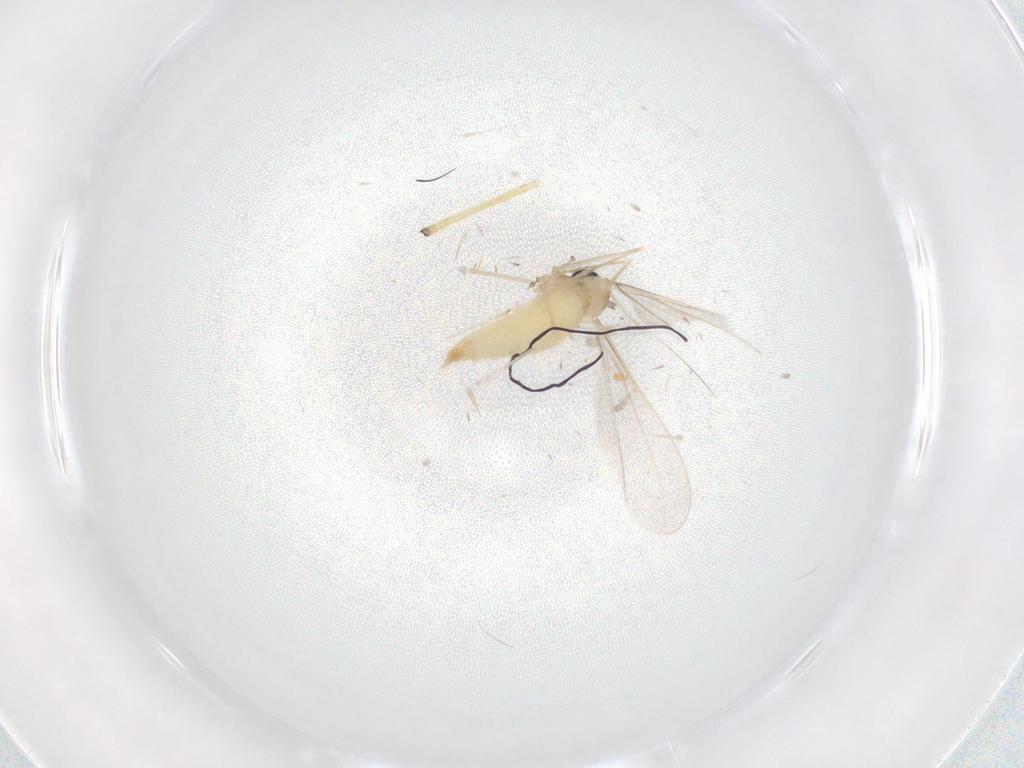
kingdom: Animalia
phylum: Arthropoda
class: Insecta
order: Diptera
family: Cecidomyiidae
